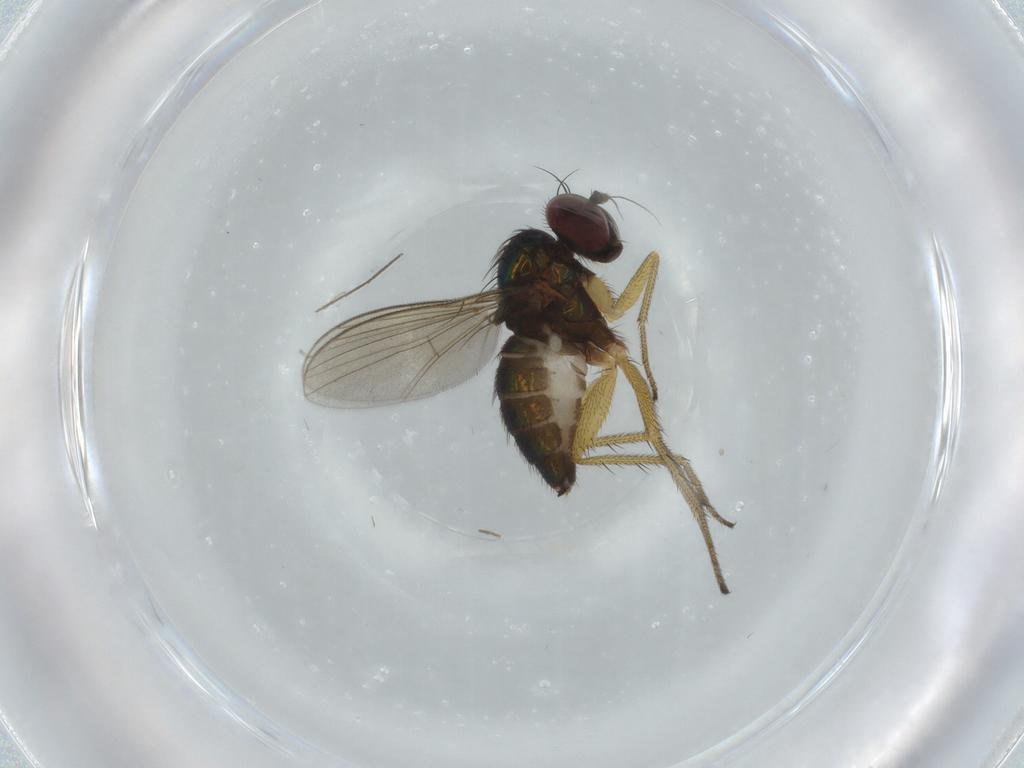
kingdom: Animalia
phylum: Arthropoda
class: Insecta
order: Diptera
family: Dolichopodidae
